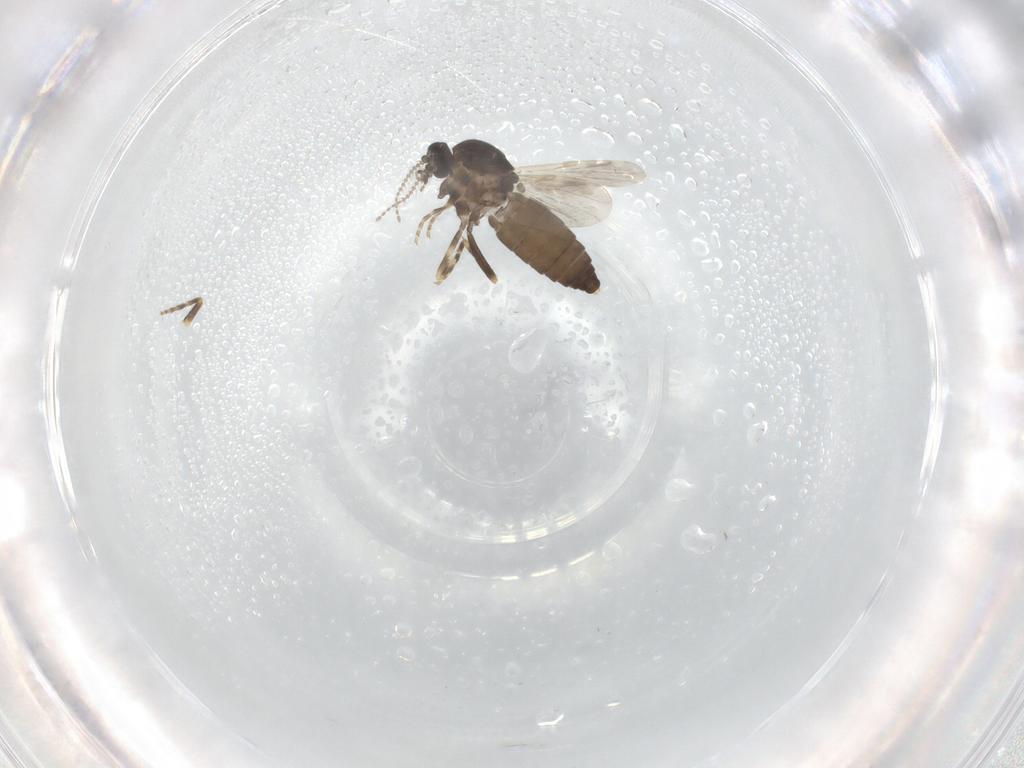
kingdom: Animalia
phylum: Arthropoda
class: Insecta
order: Diptera
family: Ceratopogonidae
